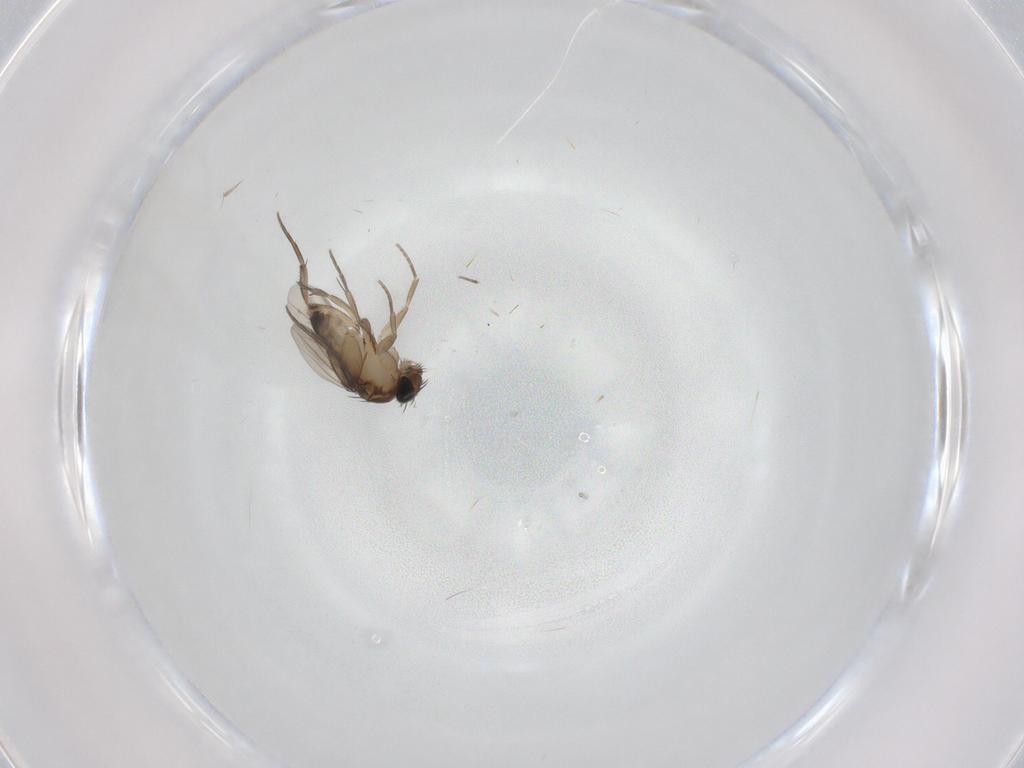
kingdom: Animalia
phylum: Arthropoda
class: Insecta
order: Diptera
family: Phoridae
